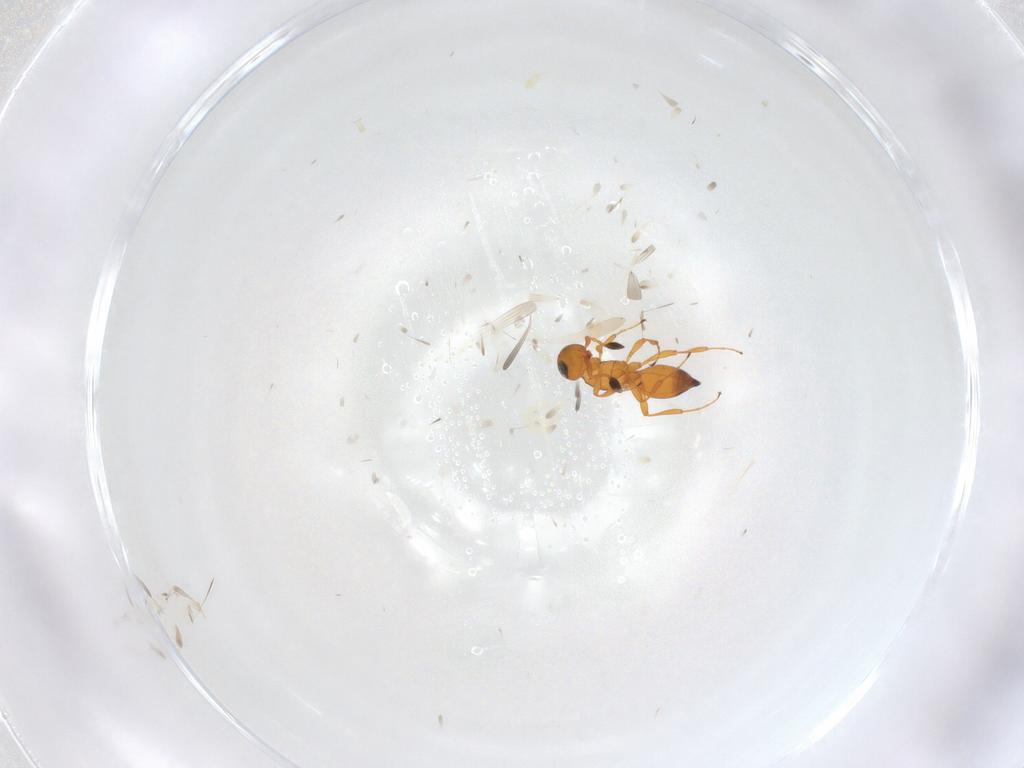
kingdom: Animalia
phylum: Arthropoda
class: Insecta
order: Hymenoptera
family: Platygastridae
